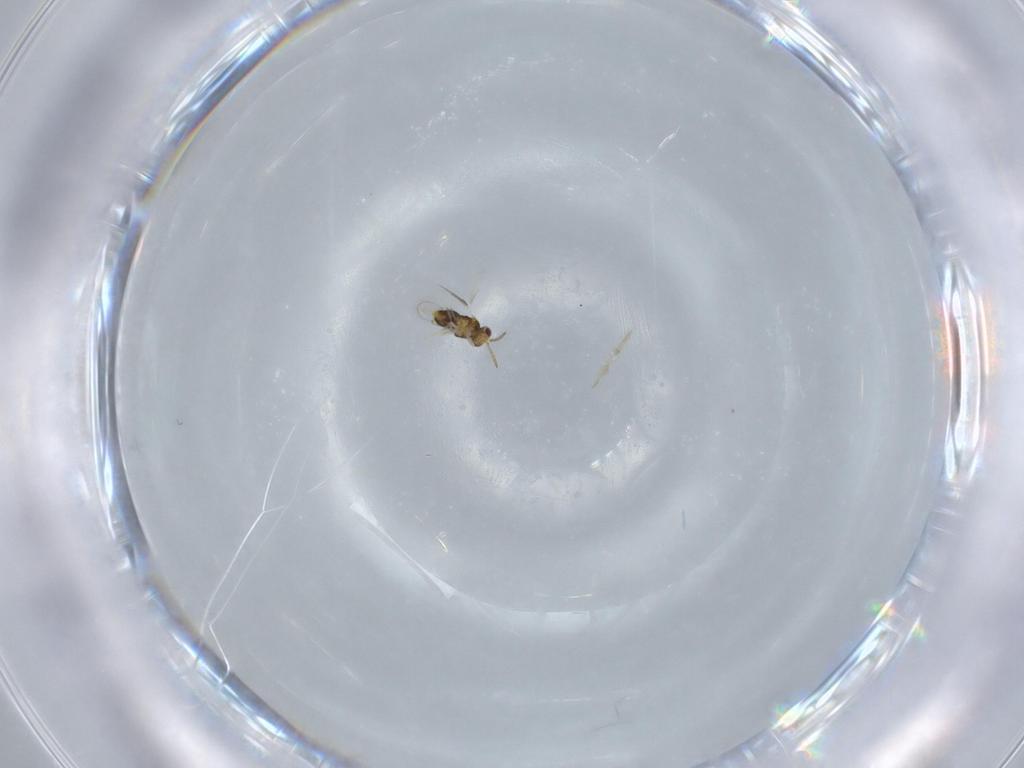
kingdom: Animalia
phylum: Arthropoda
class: Insecta
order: Hymenoptera
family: Aphelinidae
